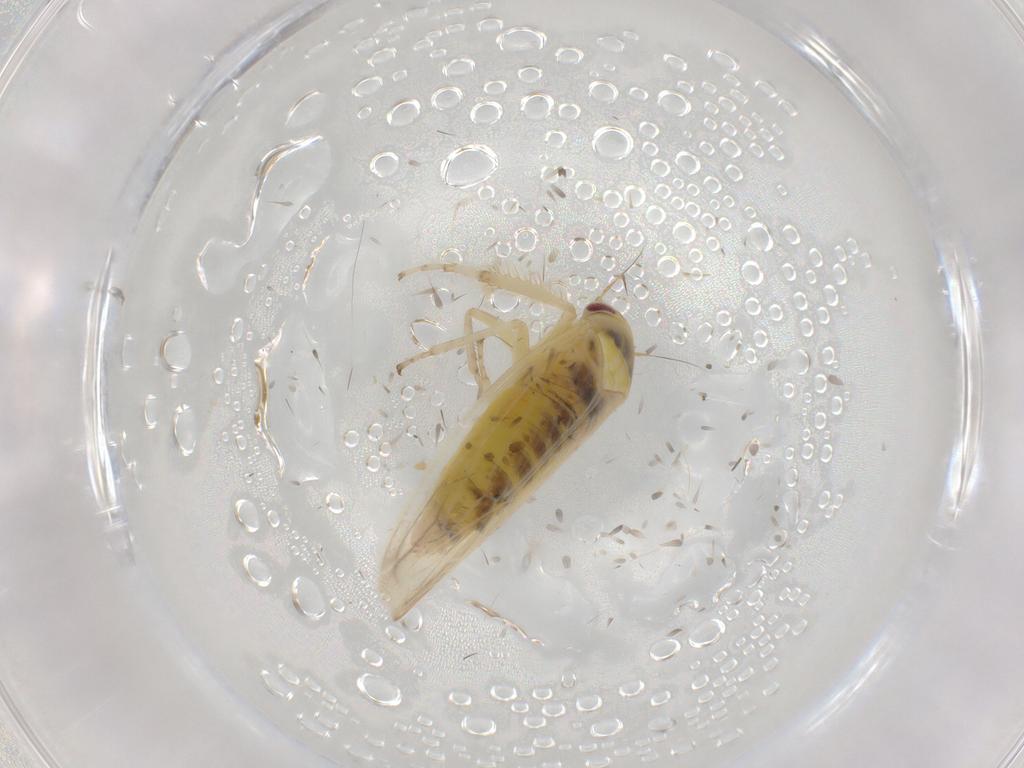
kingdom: Animalia
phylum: Arthropoda
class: Insecta
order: Hemiptera
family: Cicadellidae
